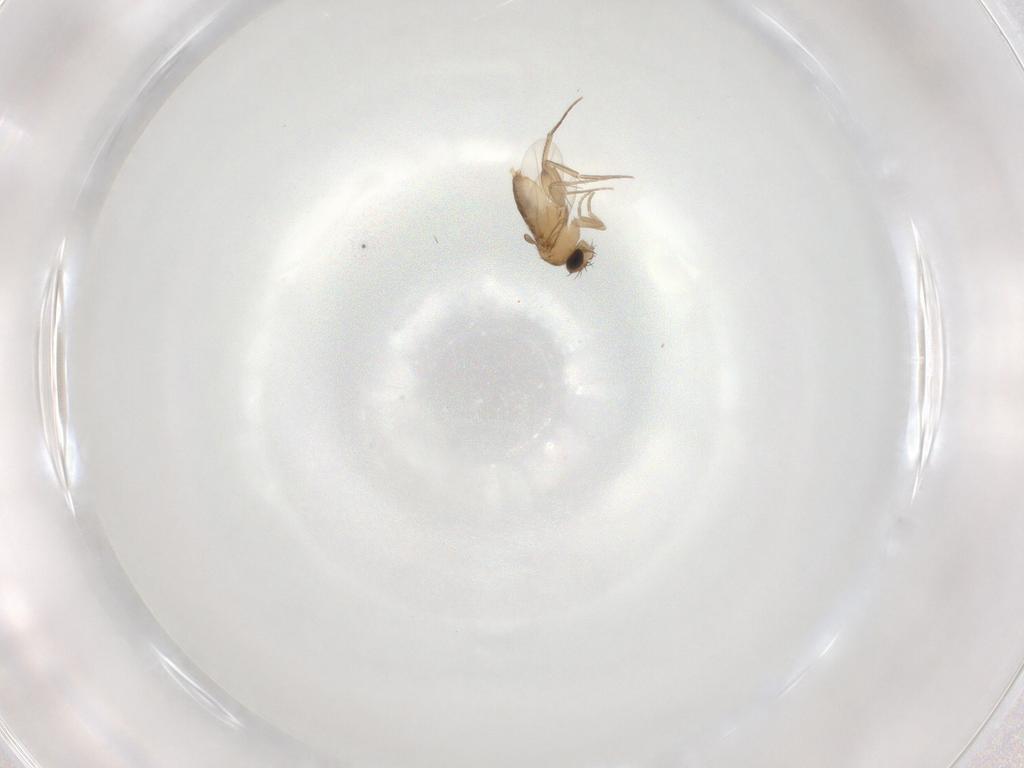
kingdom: Animalia
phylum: Arthropoda
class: Insecta
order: Diptera
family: Phoridae
